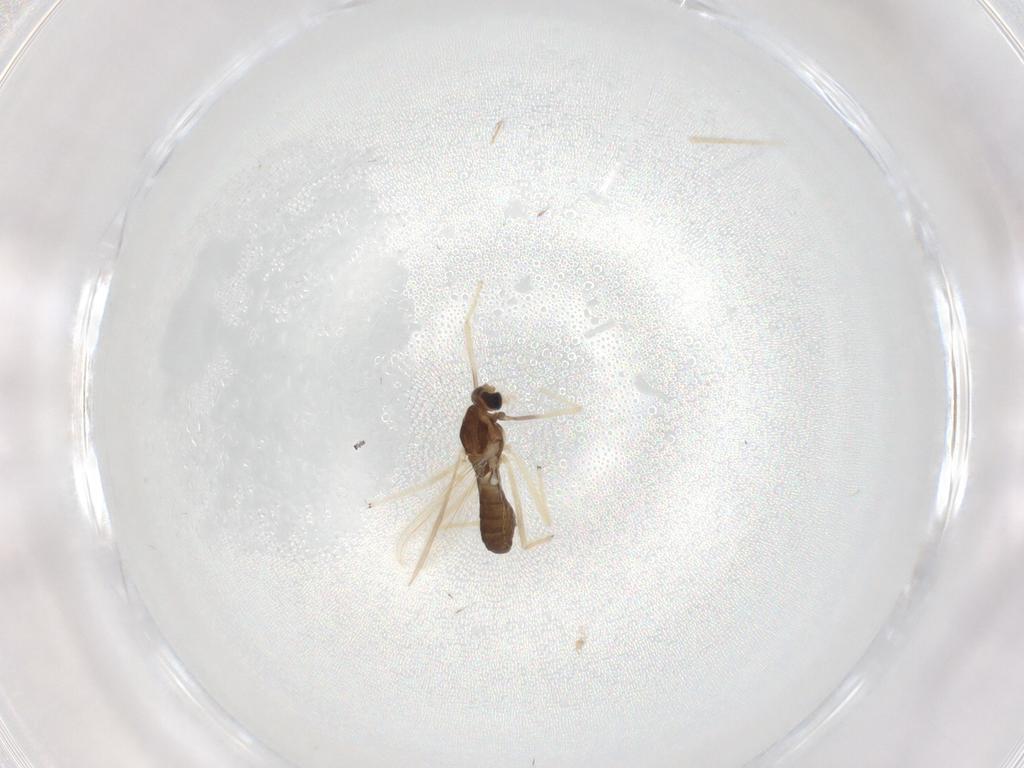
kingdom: Animalia
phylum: Arthropoda
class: Insecta
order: Diptera
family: Chironomidae
